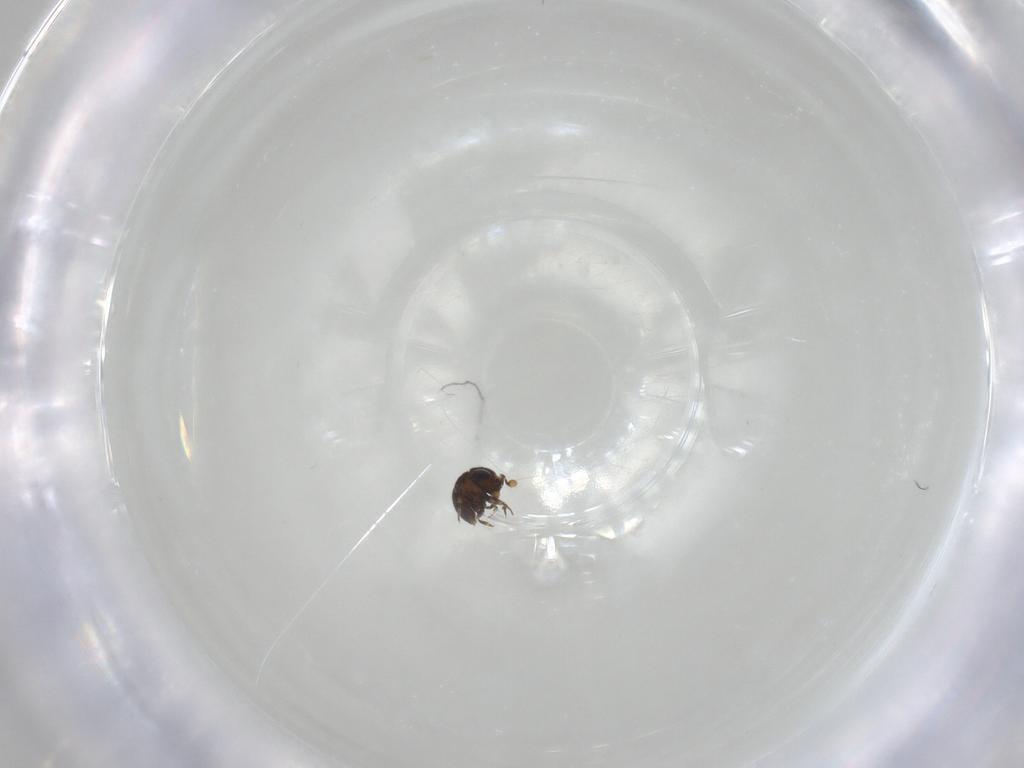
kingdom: Animalia
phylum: Arthropoda
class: Insecta
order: Hymenoptera
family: Scelionidae
